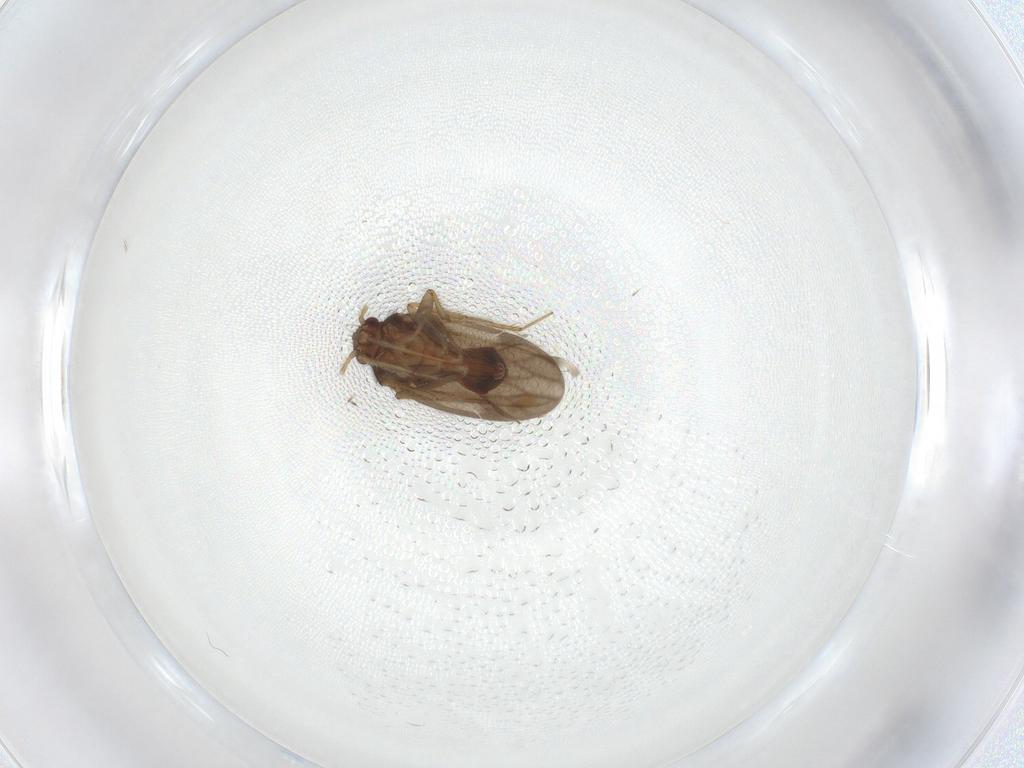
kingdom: Animalia
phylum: Arthropoda
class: Insecta
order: Hemiptera
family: Ceratocombidae
